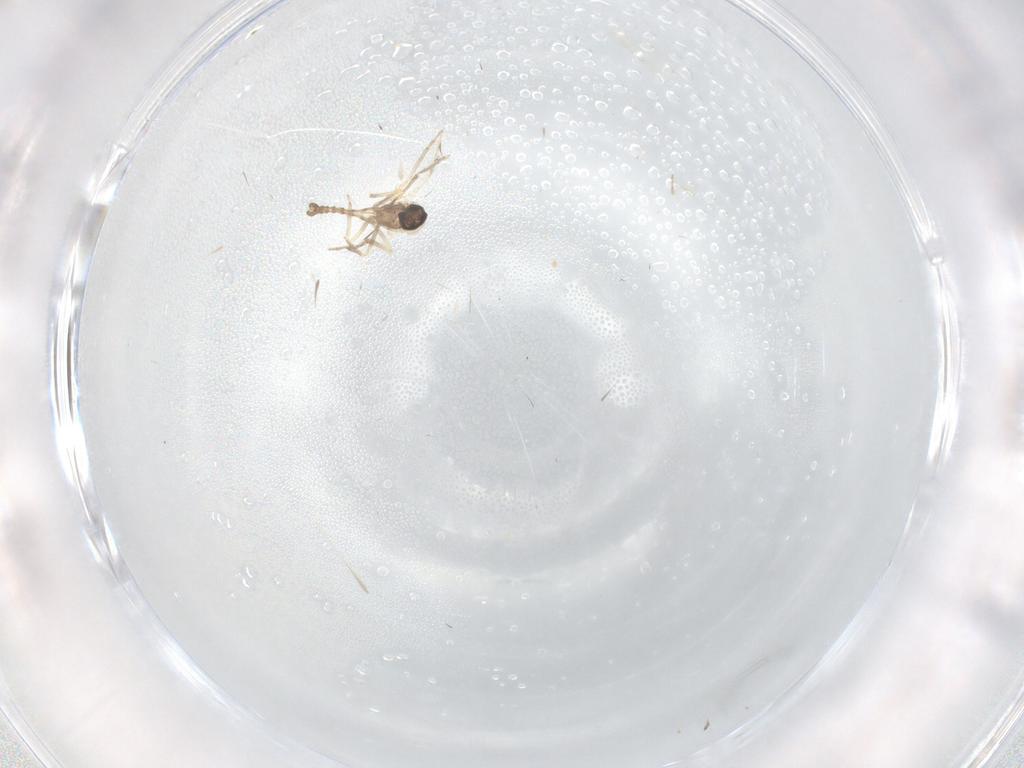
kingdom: Animalia
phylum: Arthropoda
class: Insecta
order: Diptera
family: Ceratopogonidae
